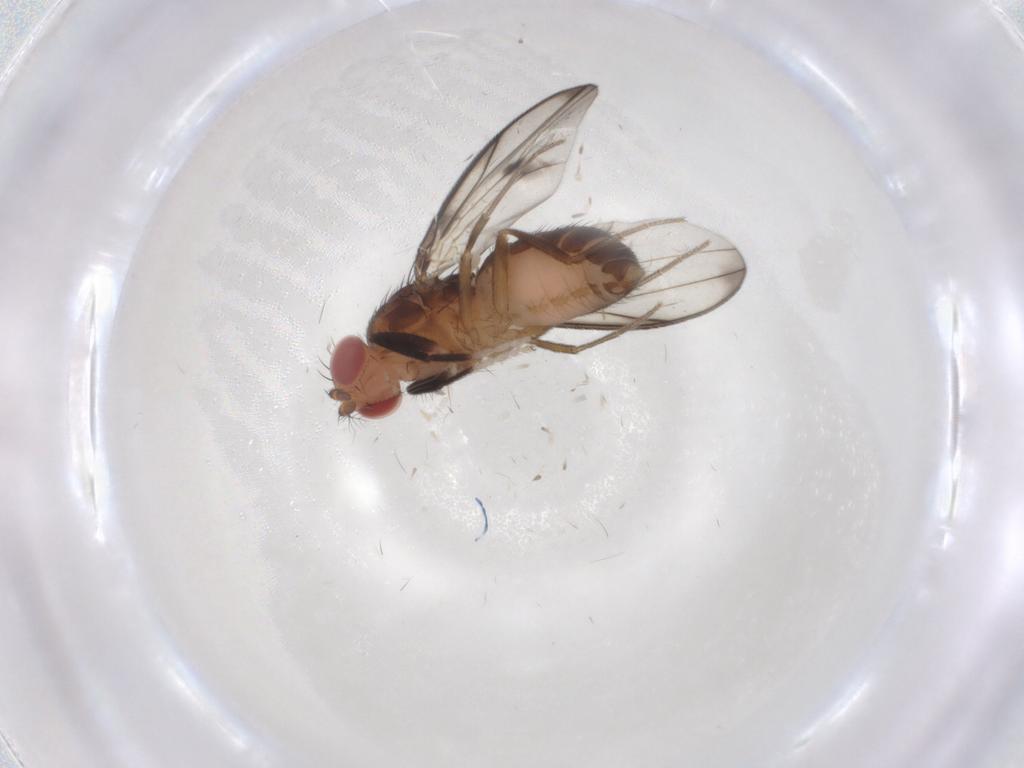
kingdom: Animalia
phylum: Arthropoda
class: Insecta
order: Diptera
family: Drosophilidae
